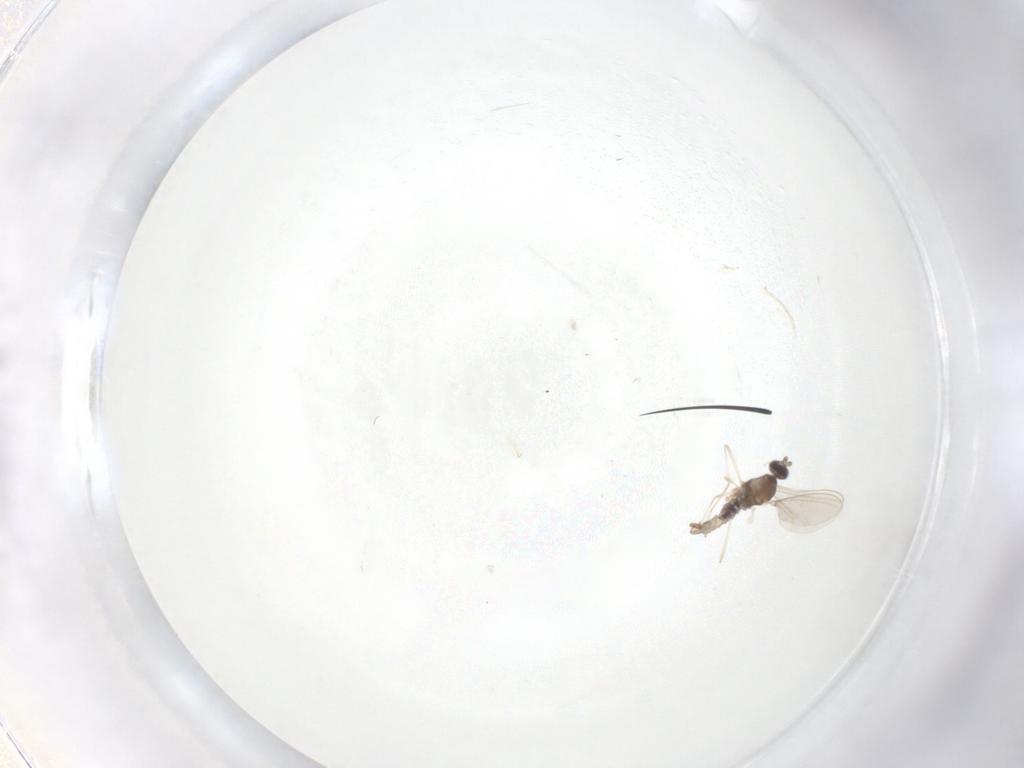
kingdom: Animalia
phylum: Arthropoda
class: Insecta
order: Diptera
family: Cecidomyiidae
